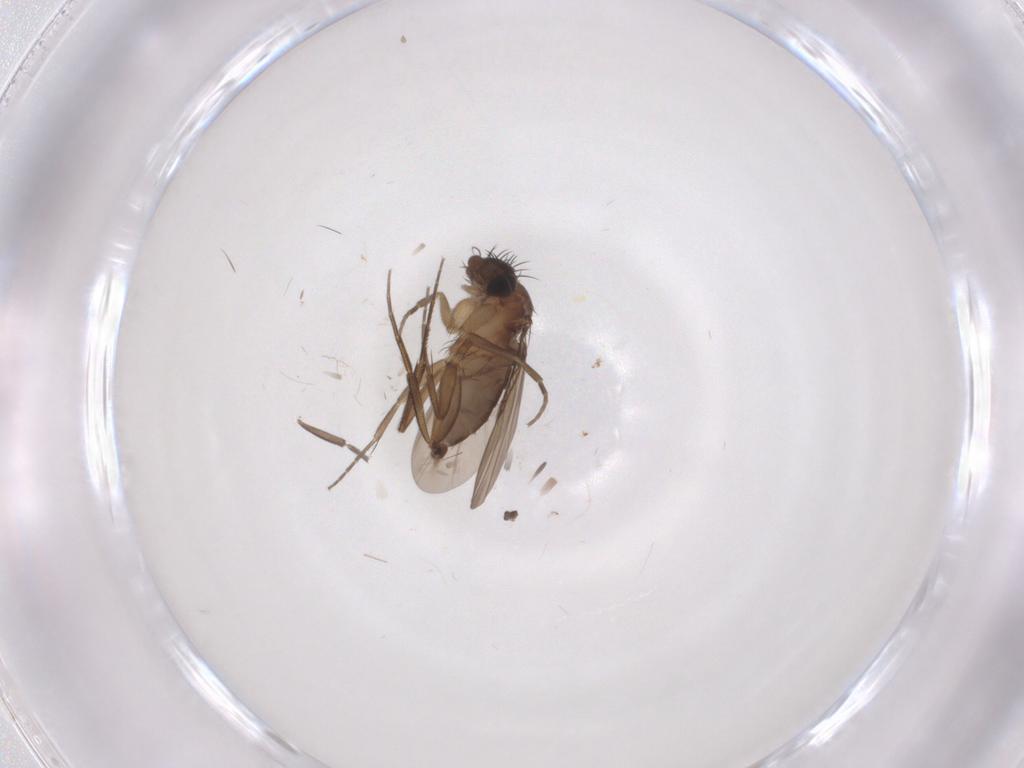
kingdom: Animalia
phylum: Arthropoda
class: Insecta
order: Diptera
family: Phoridae
